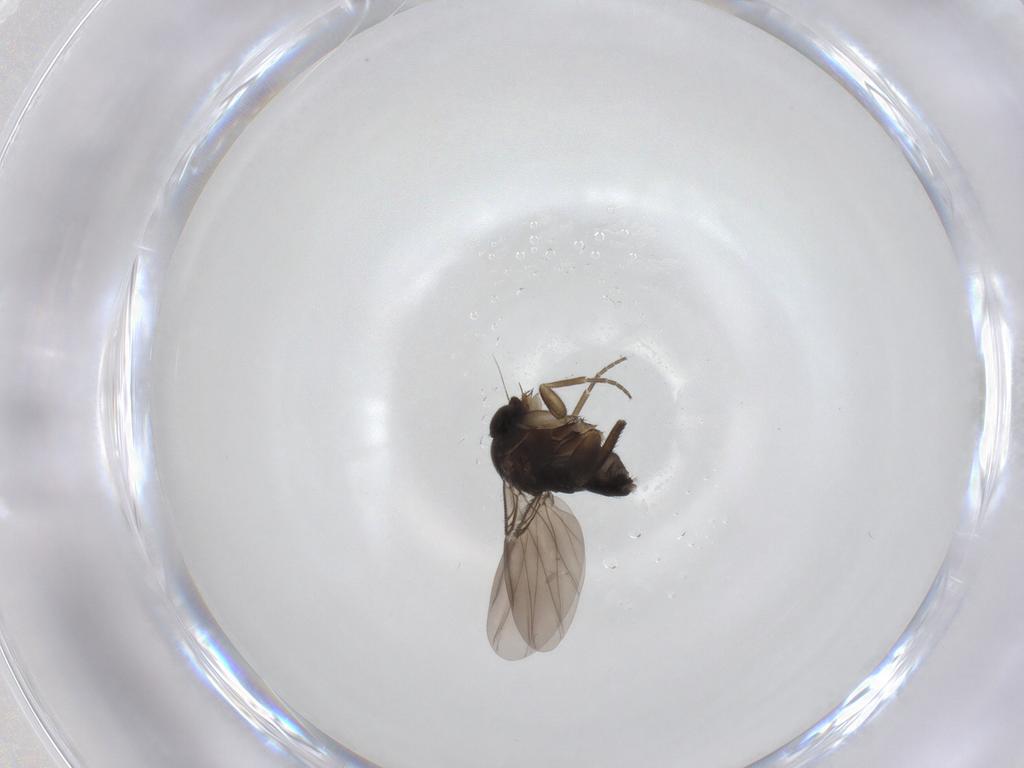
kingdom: Animalia
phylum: Arthropoda
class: Insecta
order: Diptera
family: Phoridae
